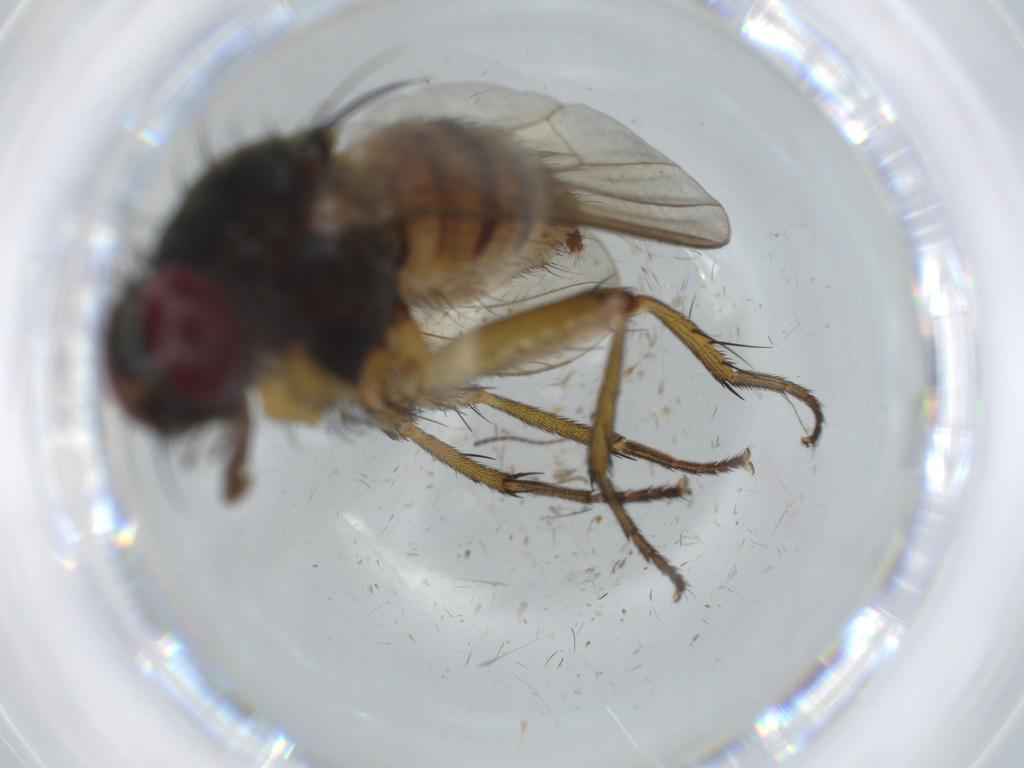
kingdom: Animalia
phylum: Arthropoda
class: Insecta
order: Diptera
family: Muscidae
